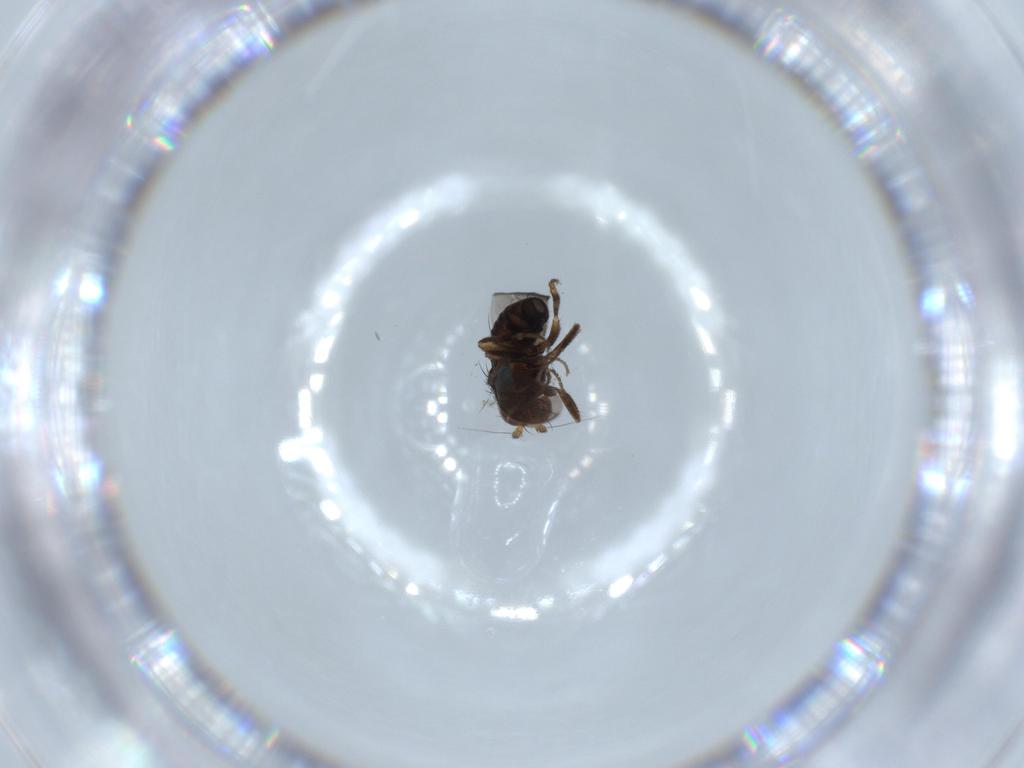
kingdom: Animalia
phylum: Arthropoda
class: Insecta
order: Diptera
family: Sphaeroceridae
